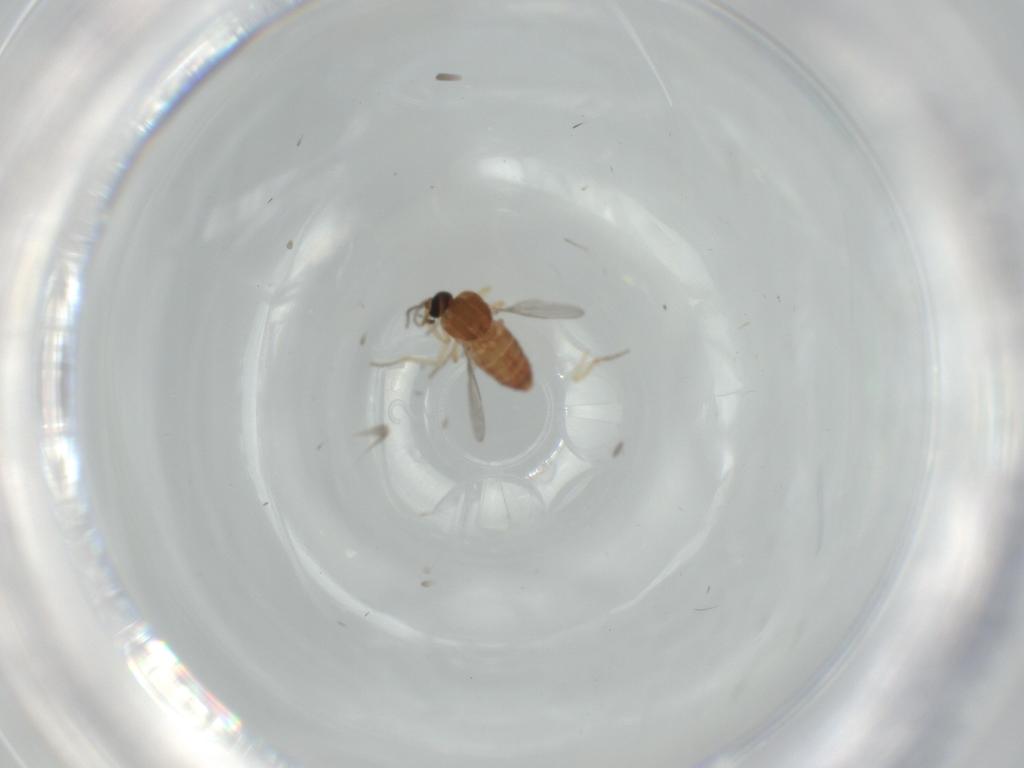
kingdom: Animalia
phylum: Arthropoda
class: Insecta
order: Diptera
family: Ceratopogonidae
